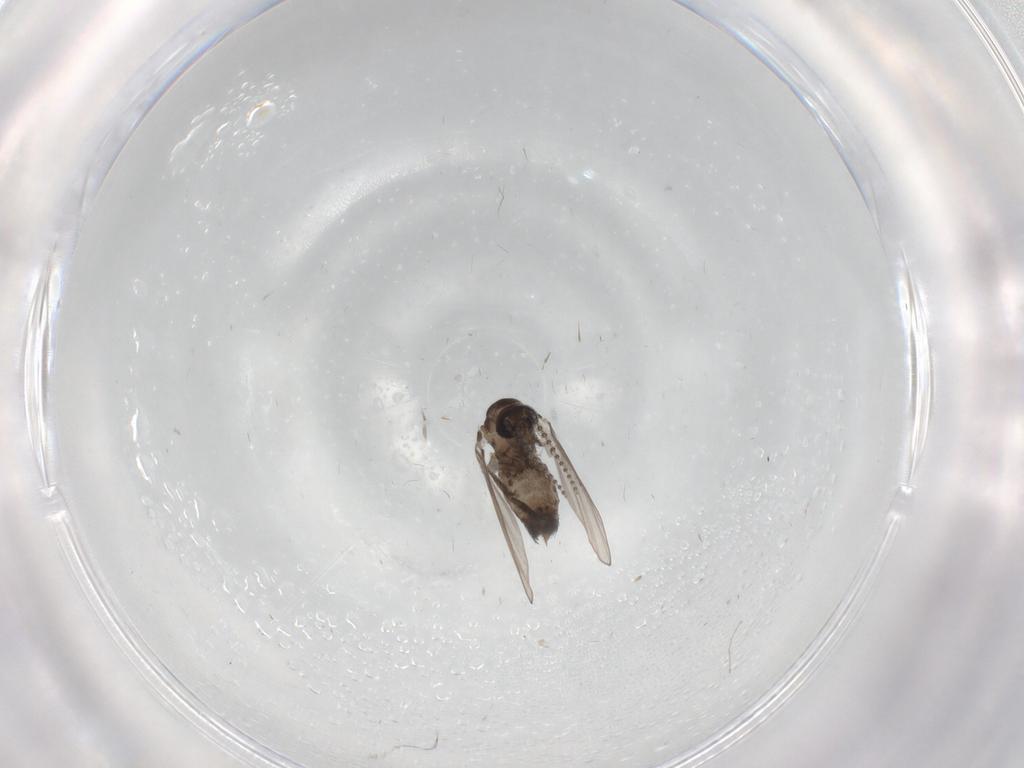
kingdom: Animalia
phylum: Arthropoda
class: Insecta
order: Diptera
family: Psychodidae
